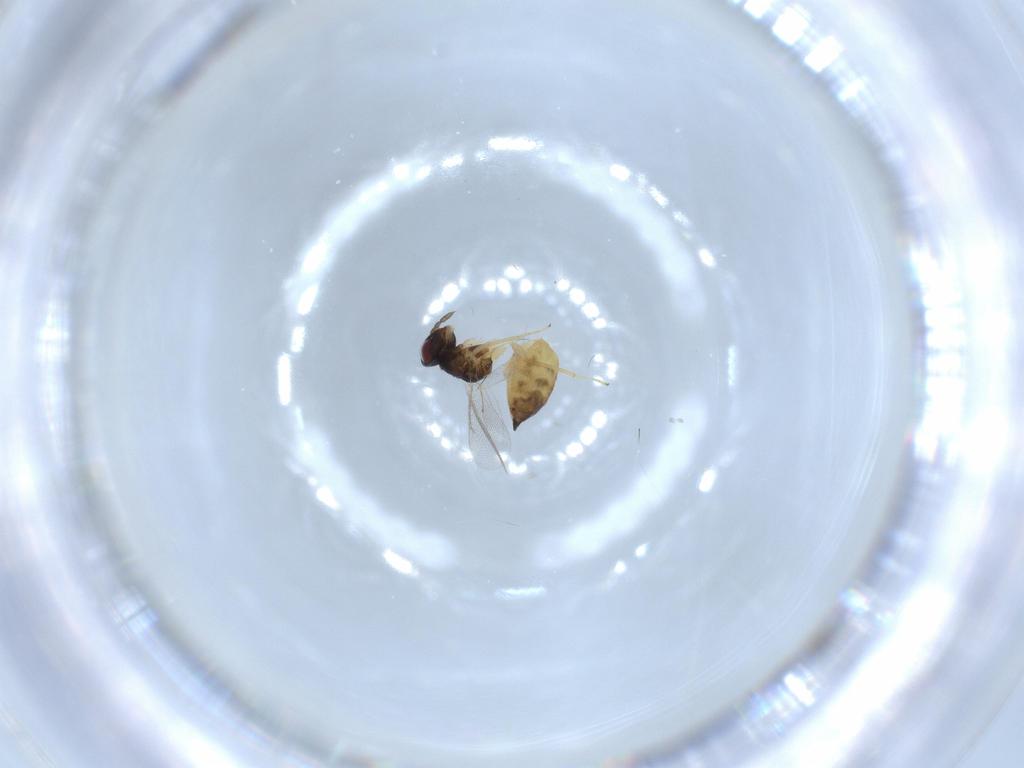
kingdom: Animalia
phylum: Arthropoda
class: Insecta
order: Hymenoptera
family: Eulophidae
